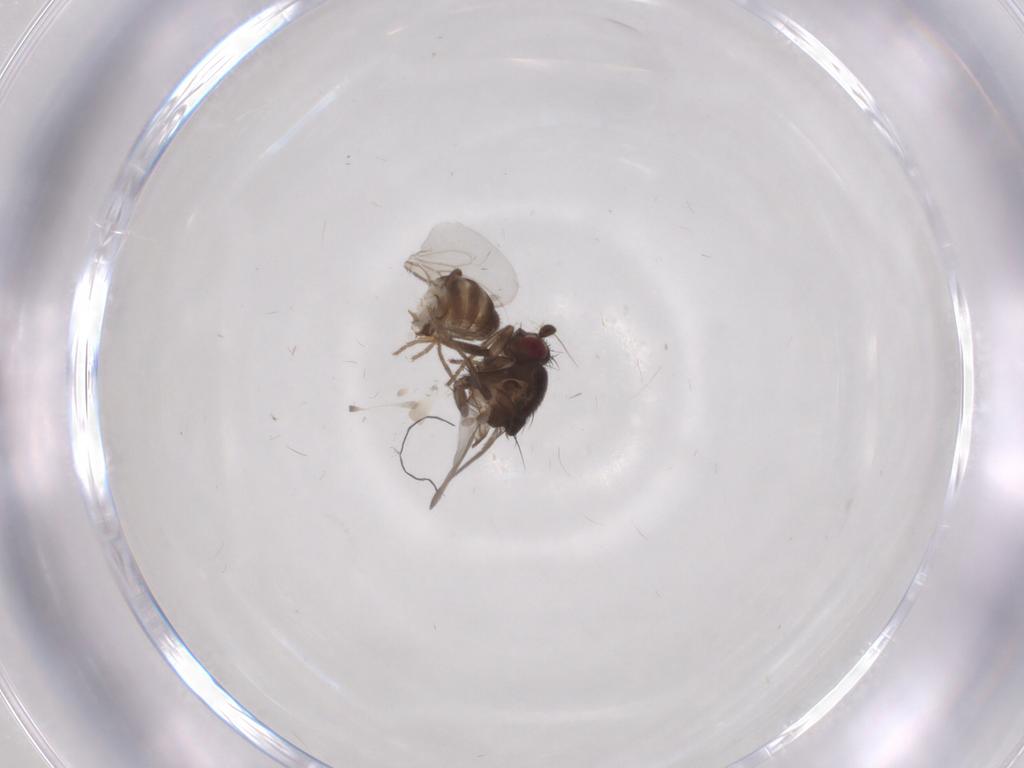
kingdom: Animalia
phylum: Arthropoda
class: Insecta
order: Diptera
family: Sphaeroceridae
